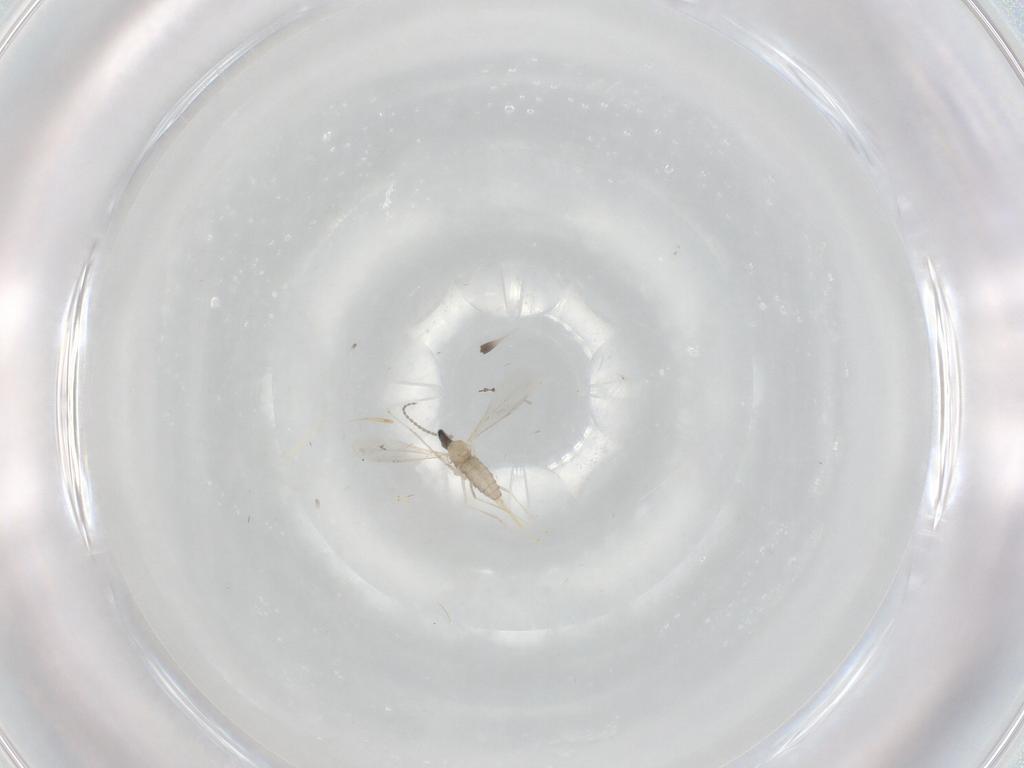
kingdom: Animalia
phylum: Arthropoda
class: Insecta
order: Diptera
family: Cecidomyiidae
